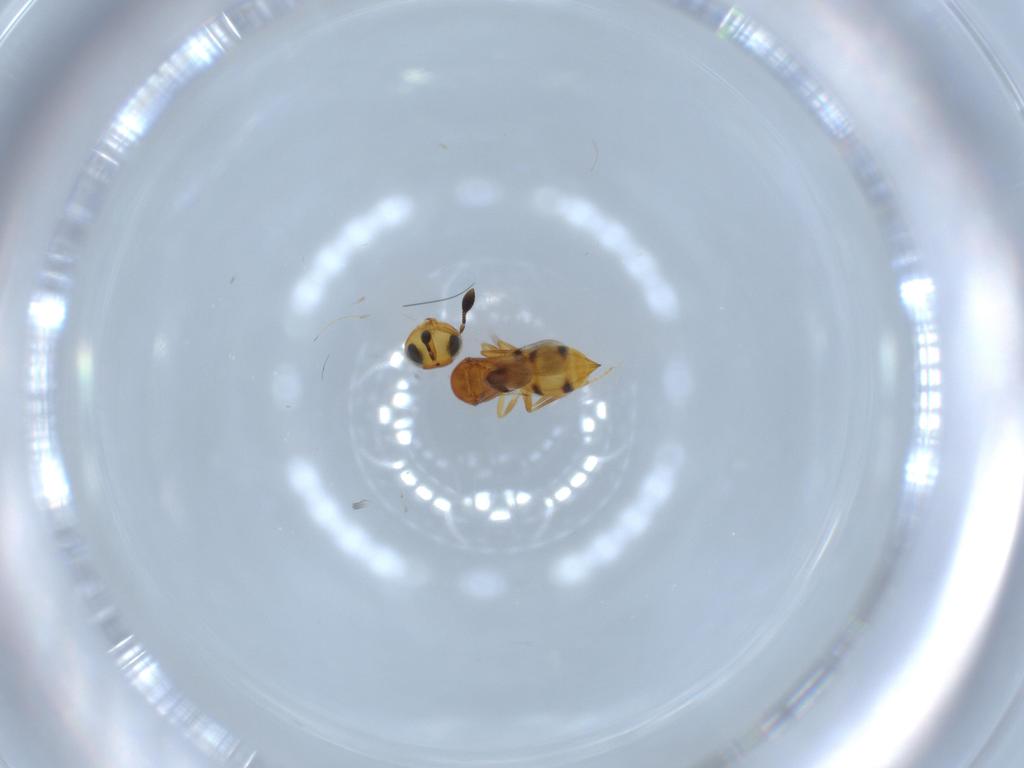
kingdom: Animalia
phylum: Arthropoda
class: Insecta
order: Hymenoptera
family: Scelionidae
